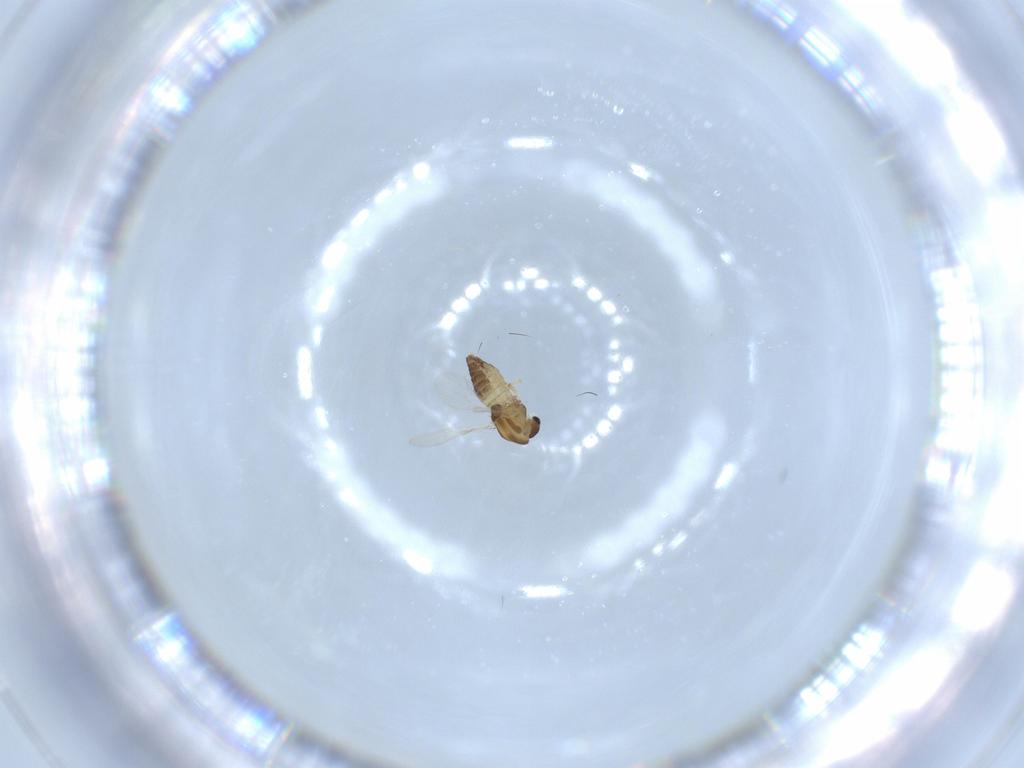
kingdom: Animalia
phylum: Arthropoda
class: Insecta
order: Diptera
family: Chironomidae
